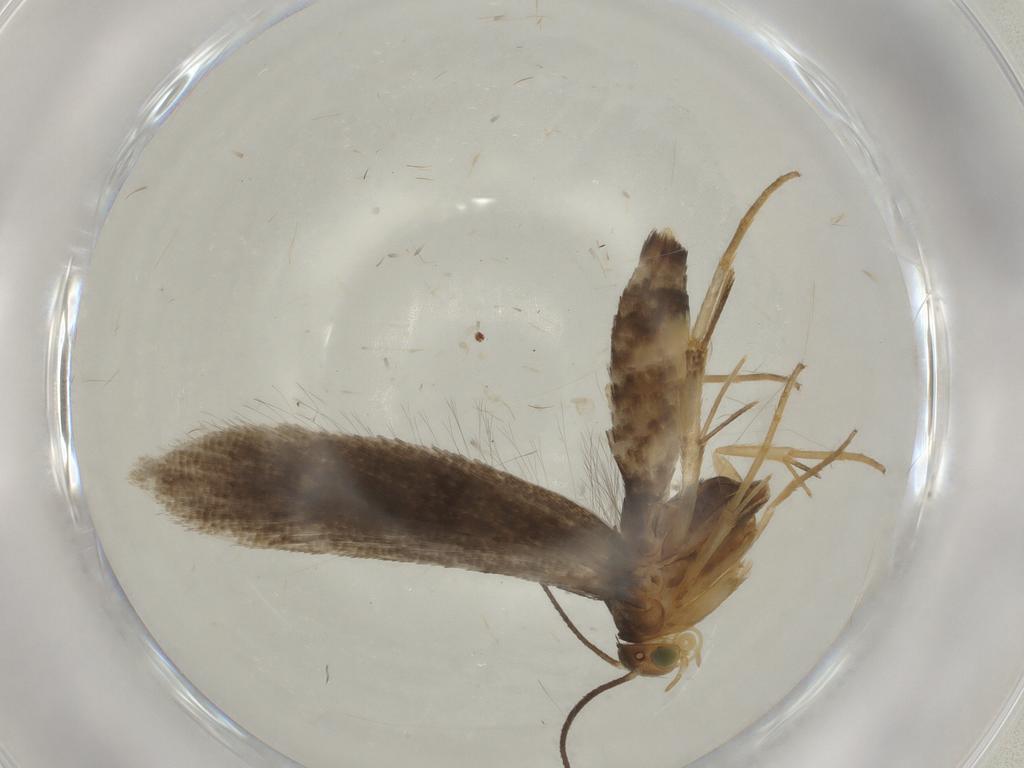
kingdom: Animalia
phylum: Arthropoda
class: Insecta
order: Lepidoptera
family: Oecophoridae
